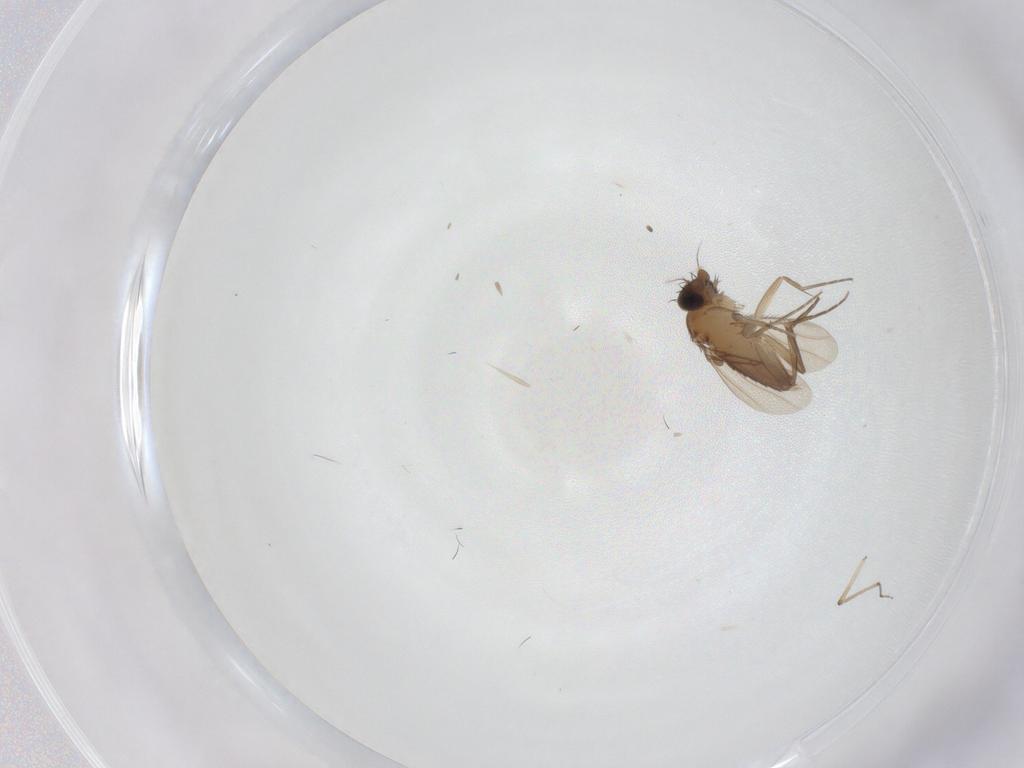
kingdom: Animalia
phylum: Arthropoda
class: Insecta
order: Diptera
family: Ceratopogonidae
